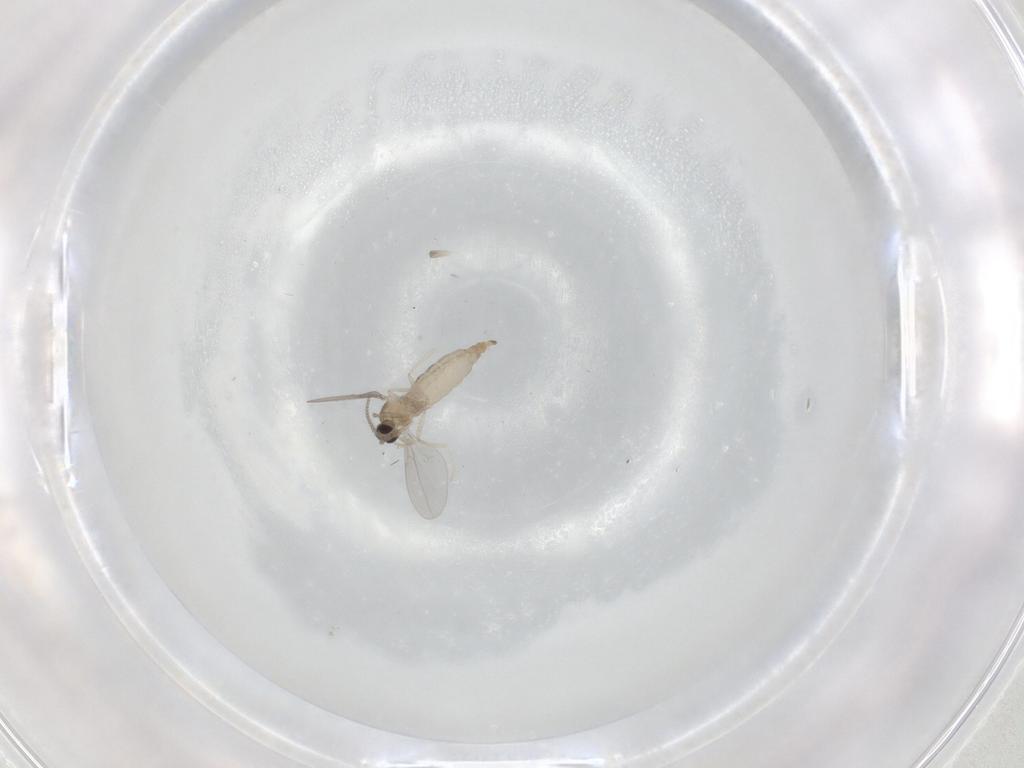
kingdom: Animalia
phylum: Arthropoda
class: Insecta
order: Diptera
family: Cecidomyiidae
